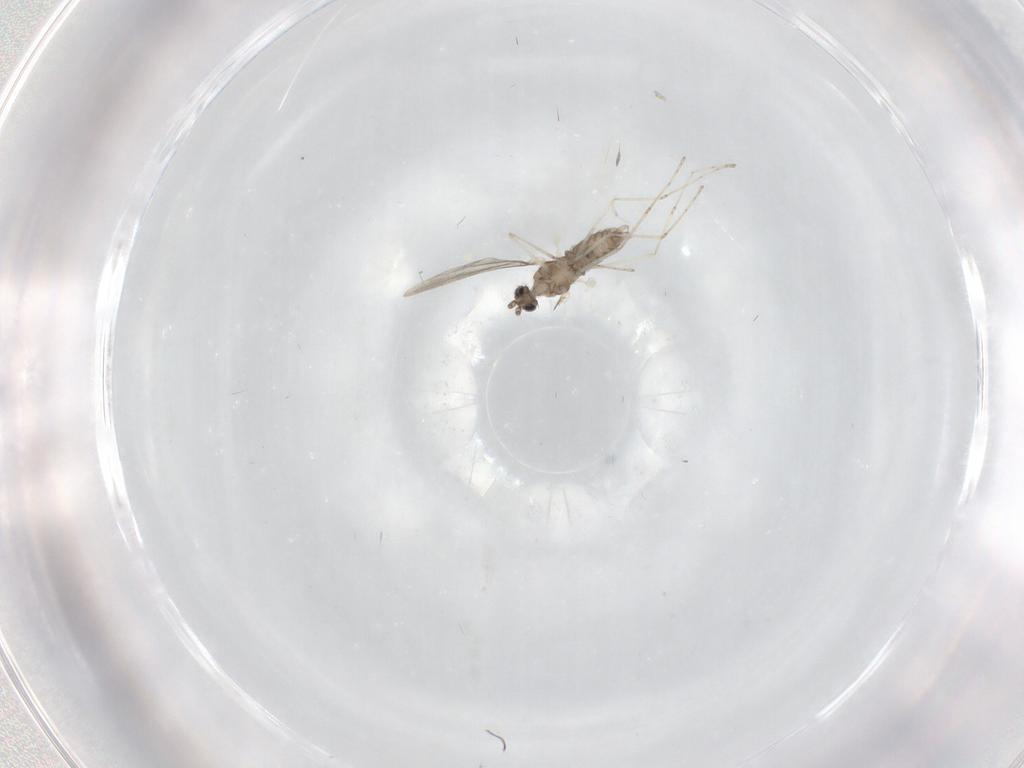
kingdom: Animalia
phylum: Arthropoda
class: Insecta
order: Diptera
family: Cecidomyiidae
